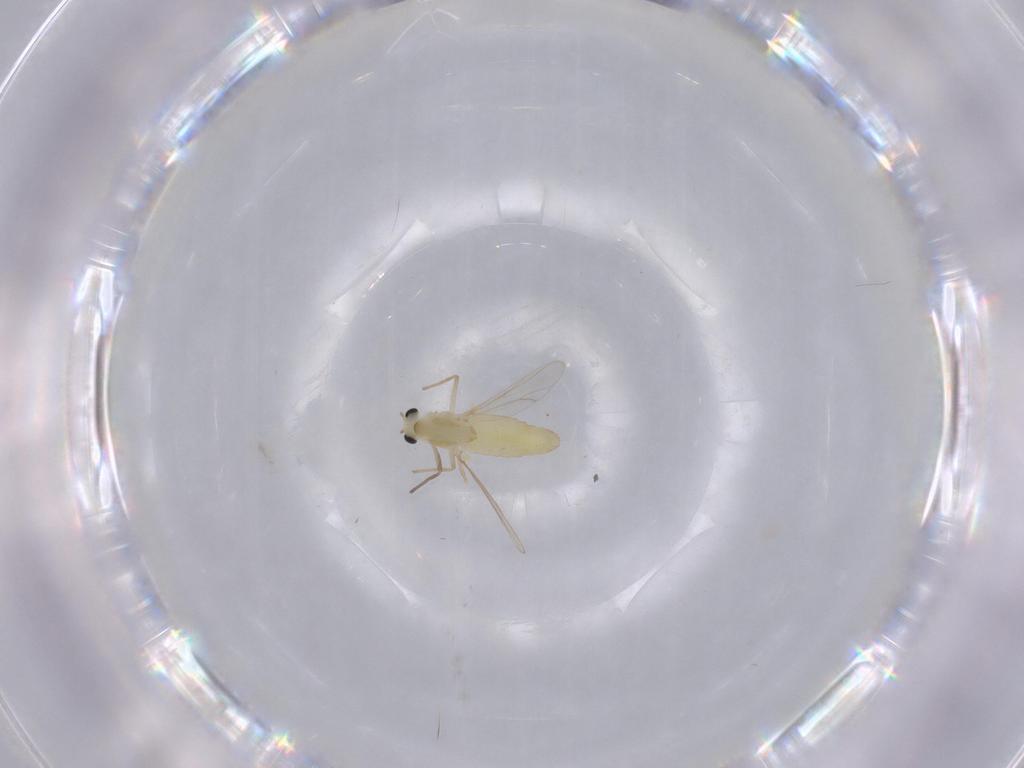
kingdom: Animalia
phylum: Arthropoda
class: Insecta
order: Diptera
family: Chironomidae
